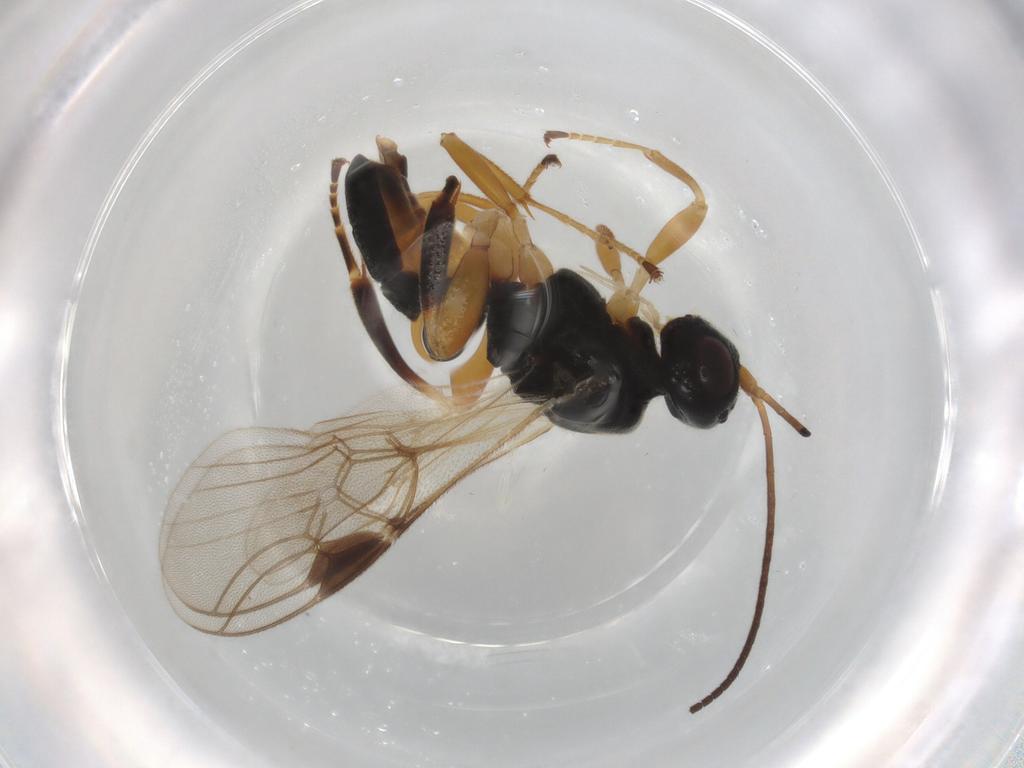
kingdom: Animalia
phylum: Arthropoda
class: Insecta
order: Hymenoptera
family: Braconidae
